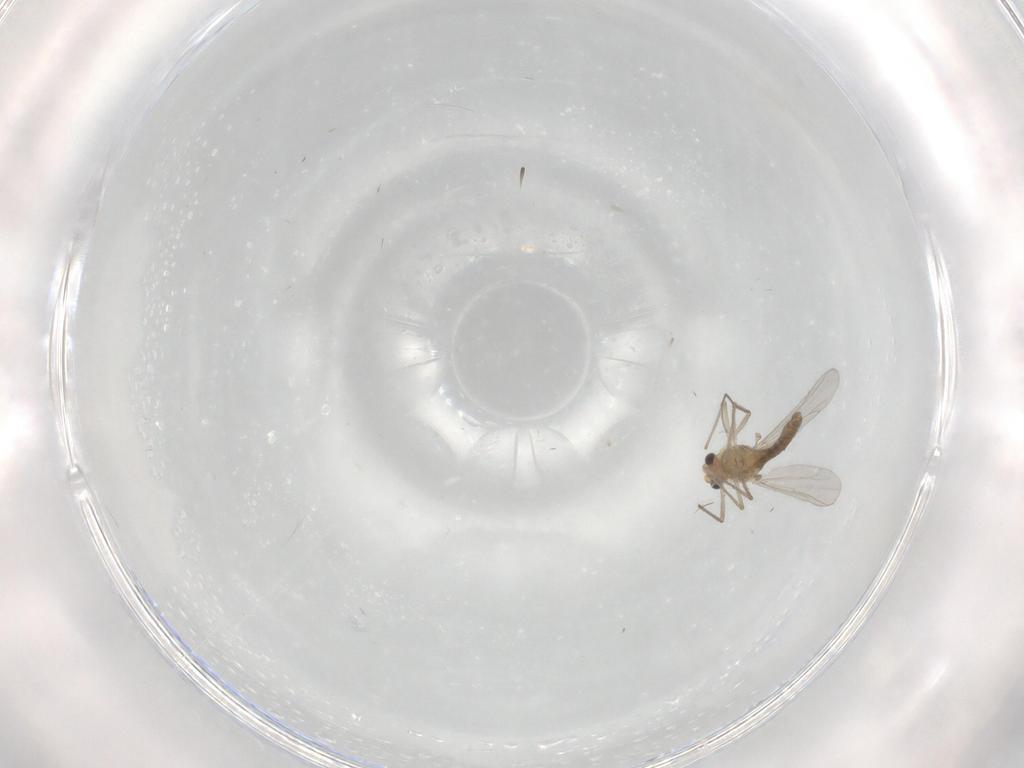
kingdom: Animalia
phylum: Arthropoda
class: Insecta
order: Diptera
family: Chironomidae
